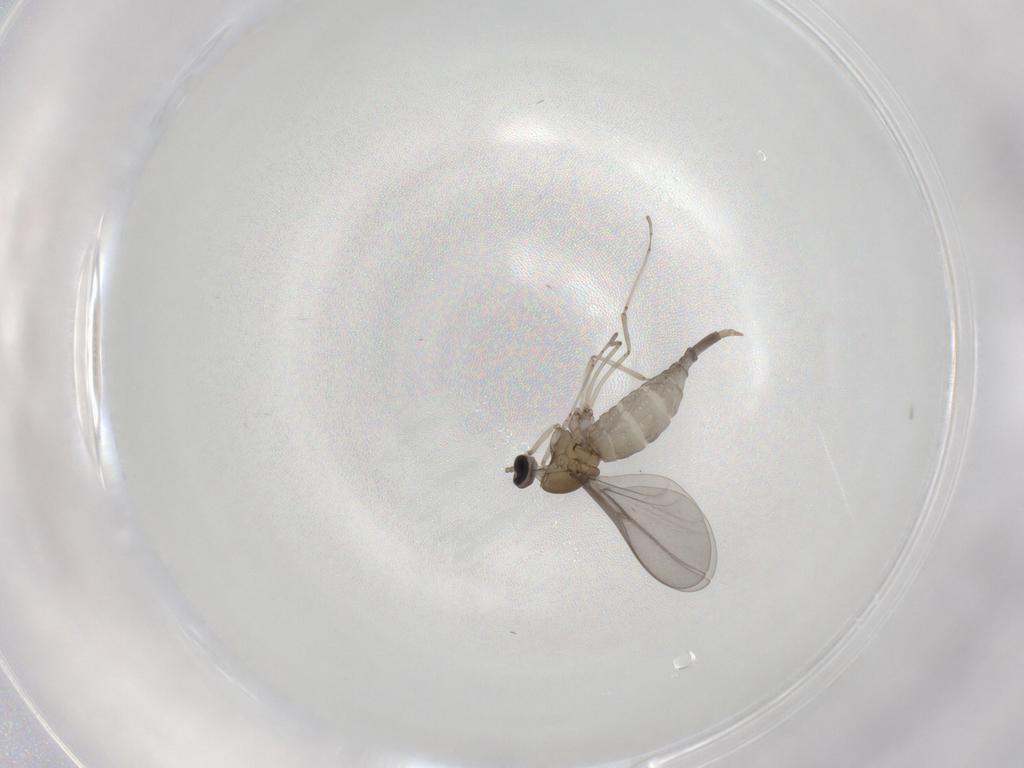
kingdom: Animalia
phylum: Arthropoda
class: Insecta
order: Diptera
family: Cecidomyiidae
